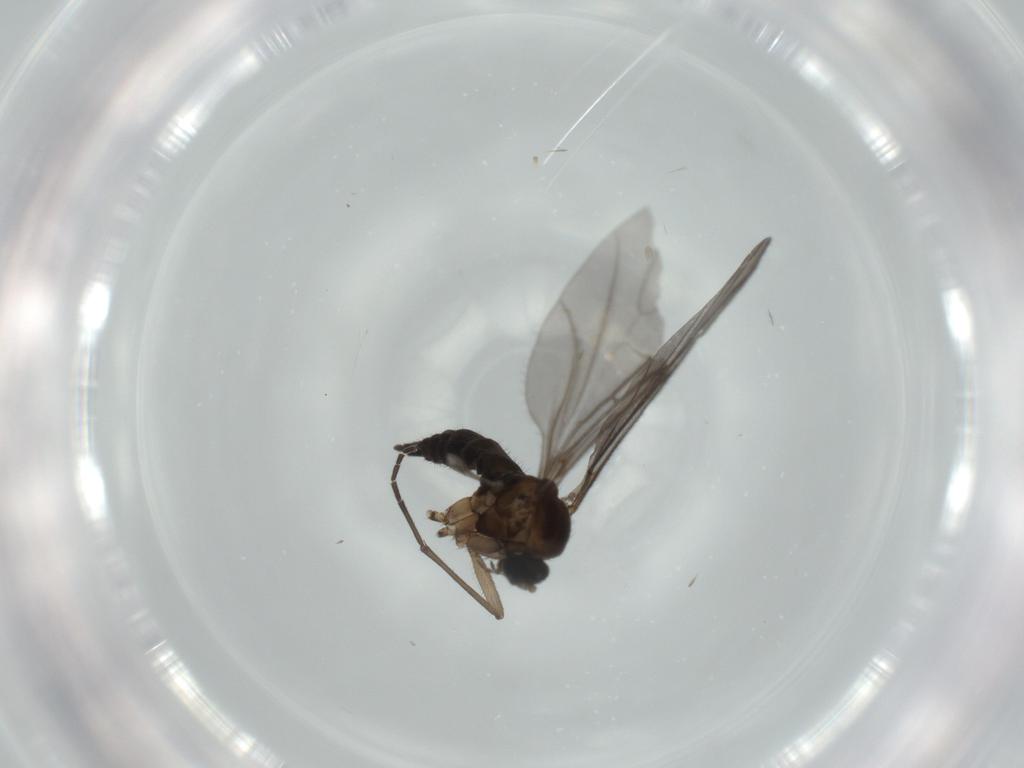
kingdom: Animalia
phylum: Arthropoda
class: Insecta
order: Diptera
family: Sciaridae
